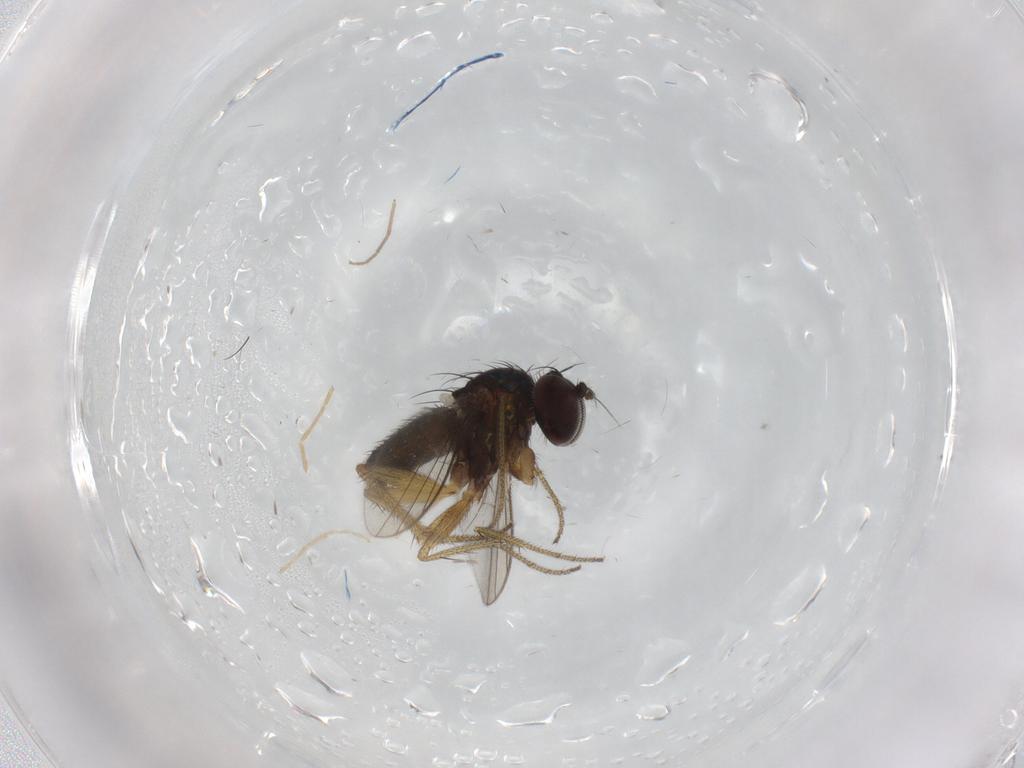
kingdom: Animalia
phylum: Arthropoda
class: Insecta
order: Diptera
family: Dolichopodidae
